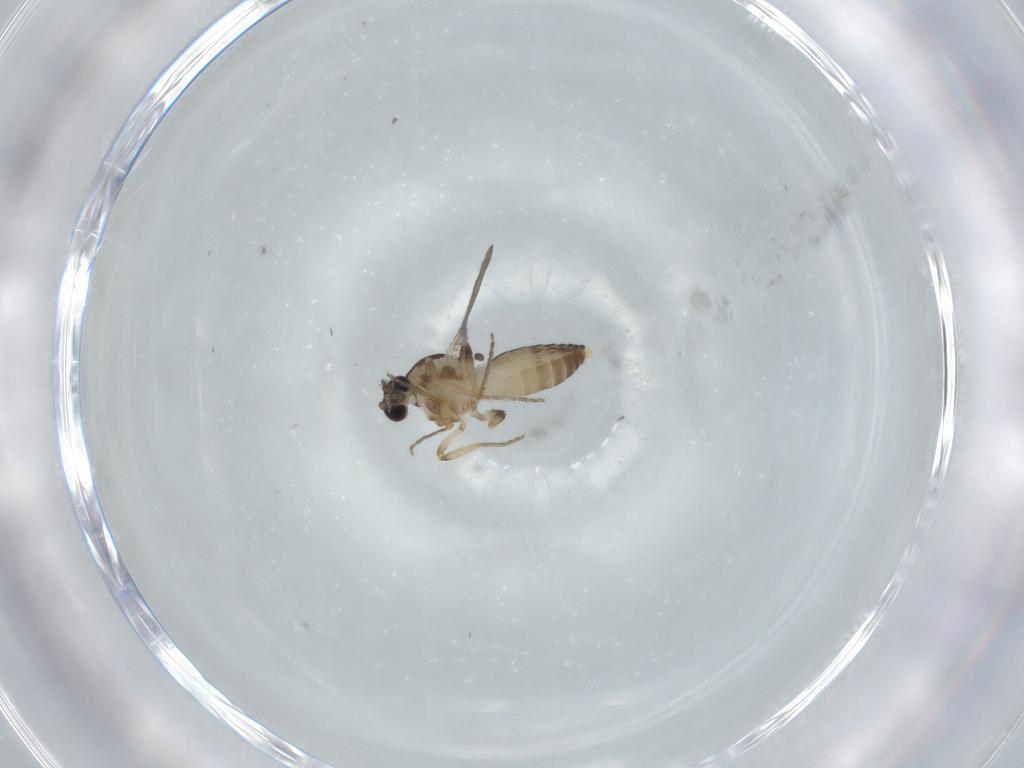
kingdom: Animalia
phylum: Arthropoda
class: Insecta
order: Diptera
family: Ceratopogonidae
